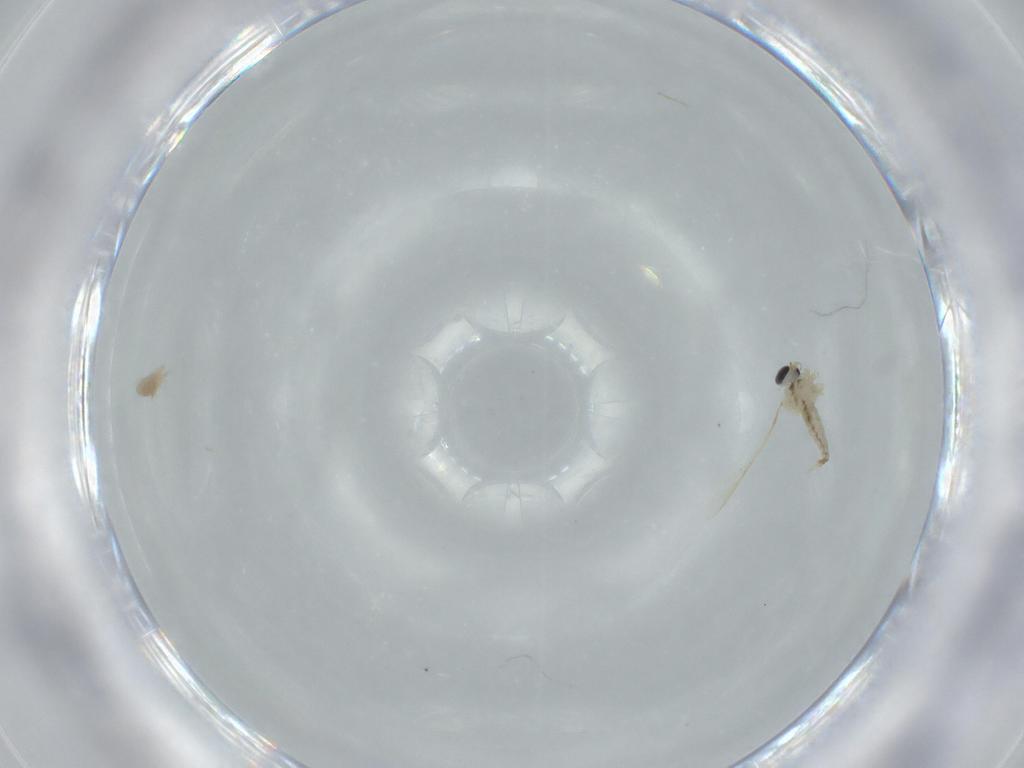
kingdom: Animalia
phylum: Arthropoda
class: Insecta
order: Diptera
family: Cecidomyiidae
